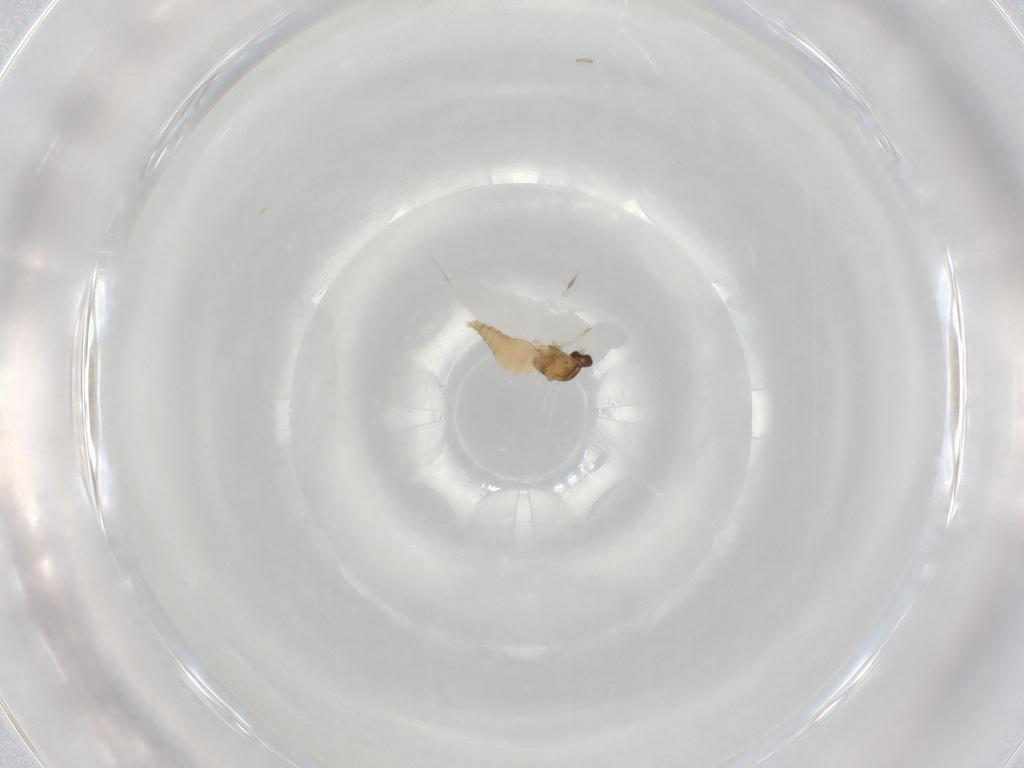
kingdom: Animalia
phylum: Arthropoda
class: Insecta
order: Diptera
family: Cecidomyiidae
